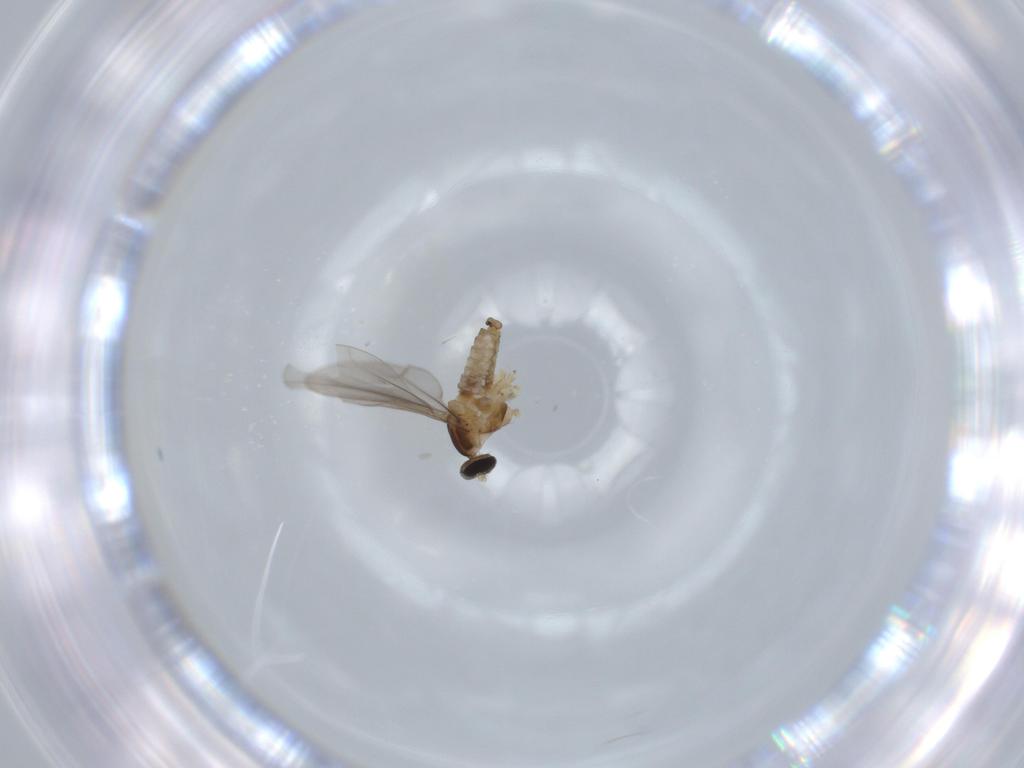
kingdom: Animalia
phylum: Arthropoda
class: Insecta
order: Diptera
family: Cecidomyiidae
